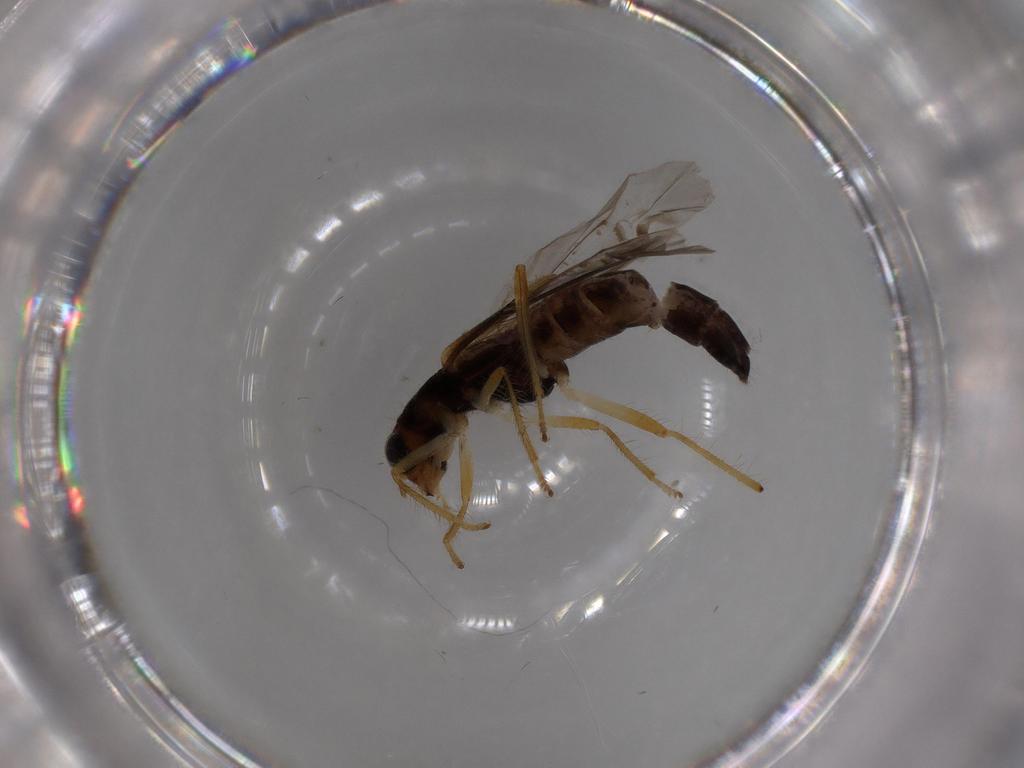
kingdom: Animalia
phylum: Arthropoda
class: Insecta
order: Coleoptera
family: Cleridae
